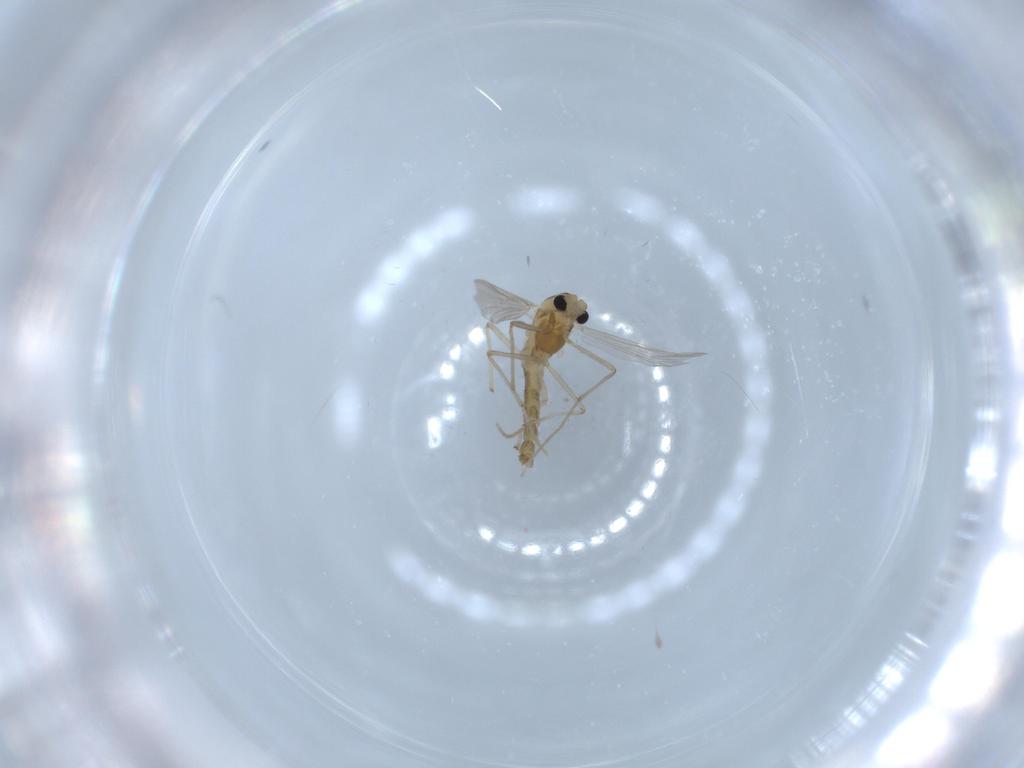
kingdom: Animalia
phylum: Arthropoda
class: Insecta
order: Diptera
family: Chironomidae
